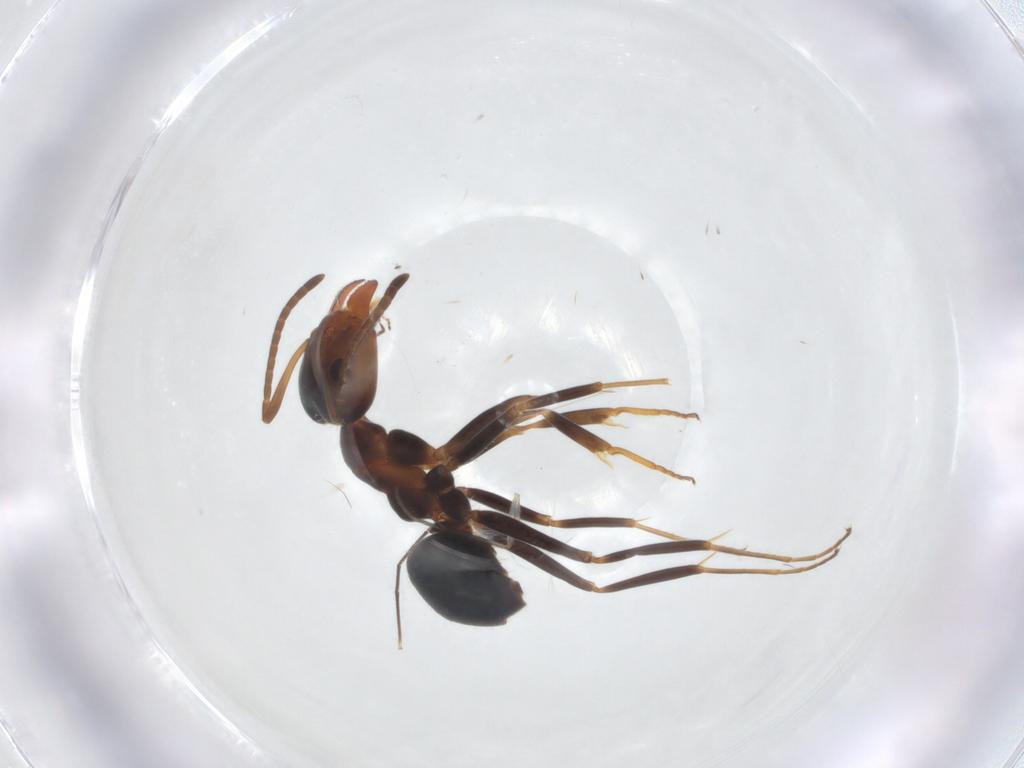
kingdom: Animalia
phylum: Arthropoda
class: Insecta
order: Hymenoptera
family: Formicidae
